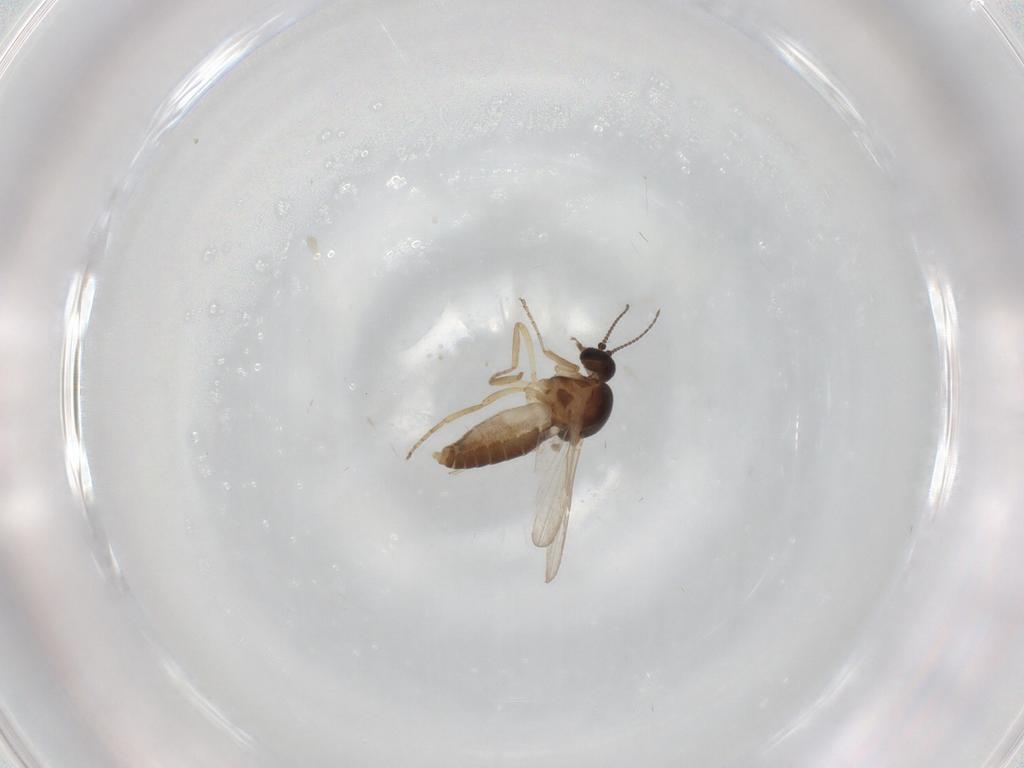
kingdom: Animalia
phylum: Arthropoda
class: Insecta
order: Diptera
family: Ceratopogonidae
